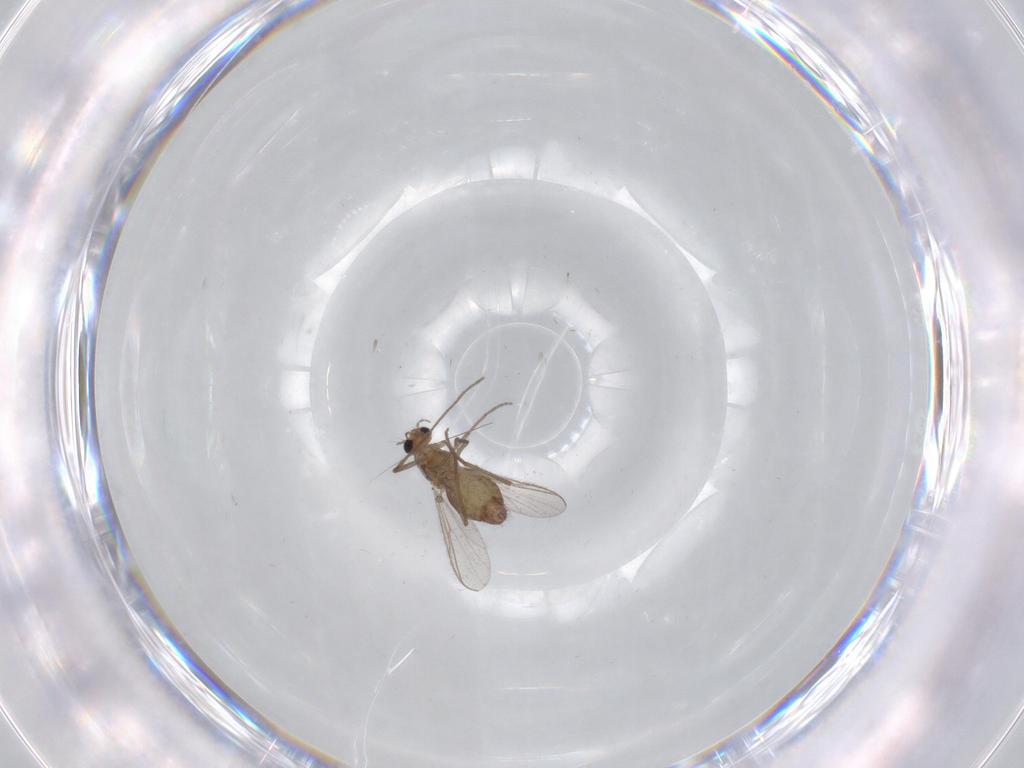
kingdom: Animalia
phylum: Arthropoda
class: Insecta
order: Diptera
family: Chironomidae
